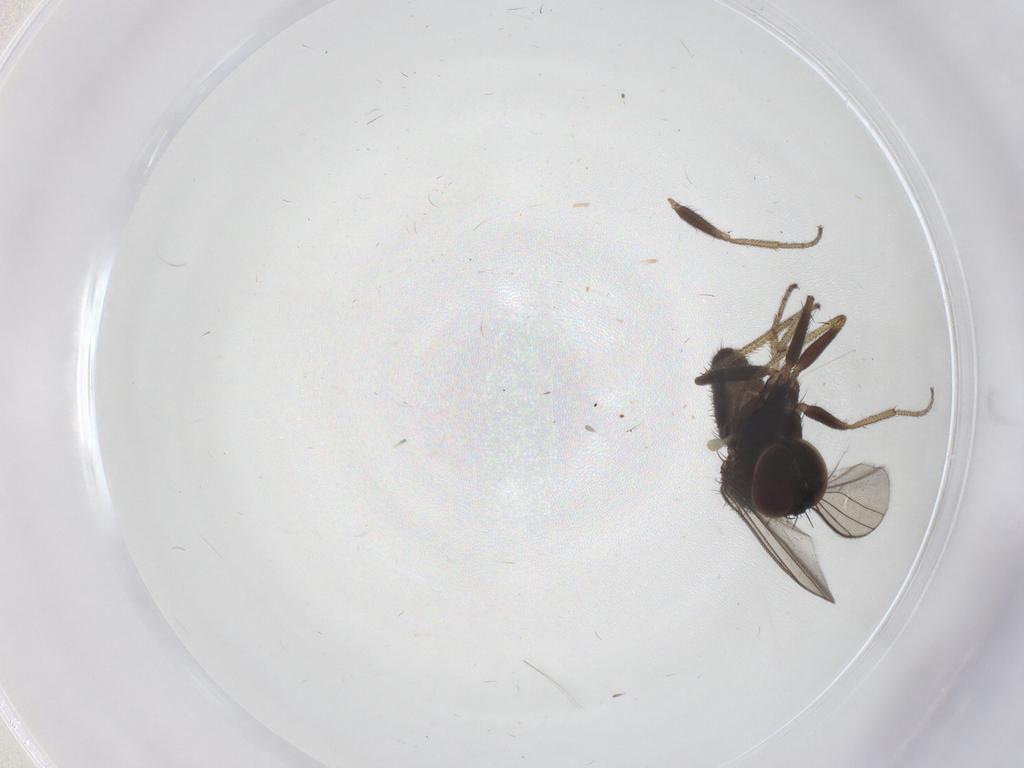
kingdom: Animalia
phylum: Arthropoda
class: Insecta
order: Diptera
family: Dolichopodidae
